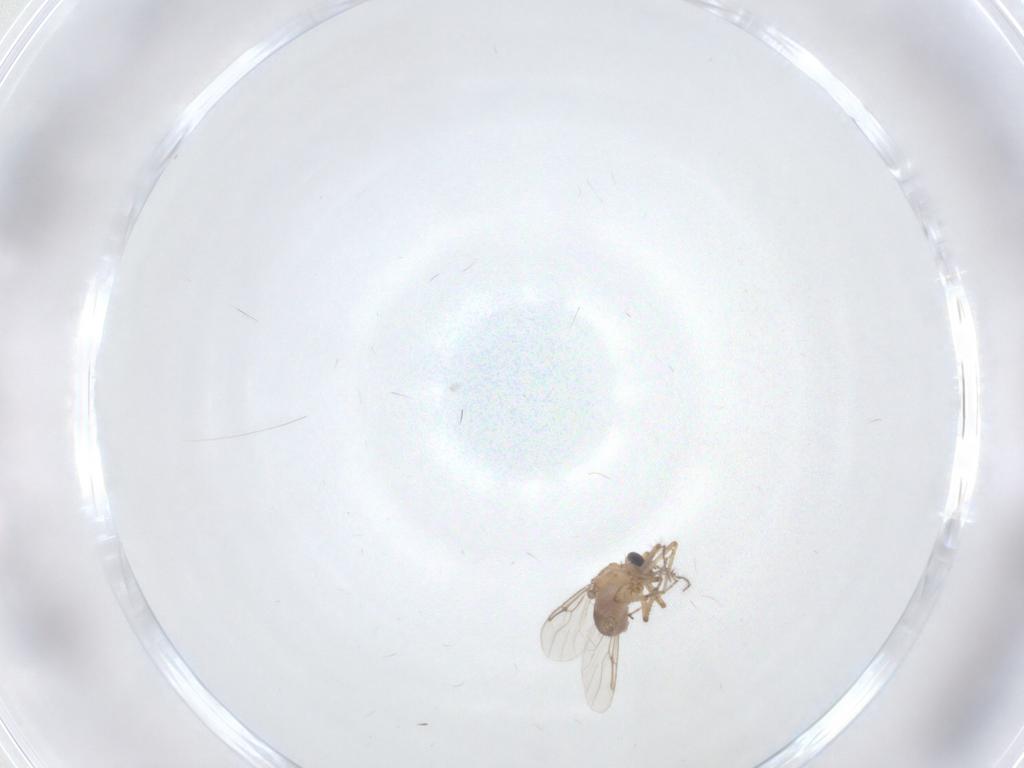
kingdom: Animalia
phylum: Arthropoda
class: Insecta
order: Diptera
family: Ceratopogonidae
